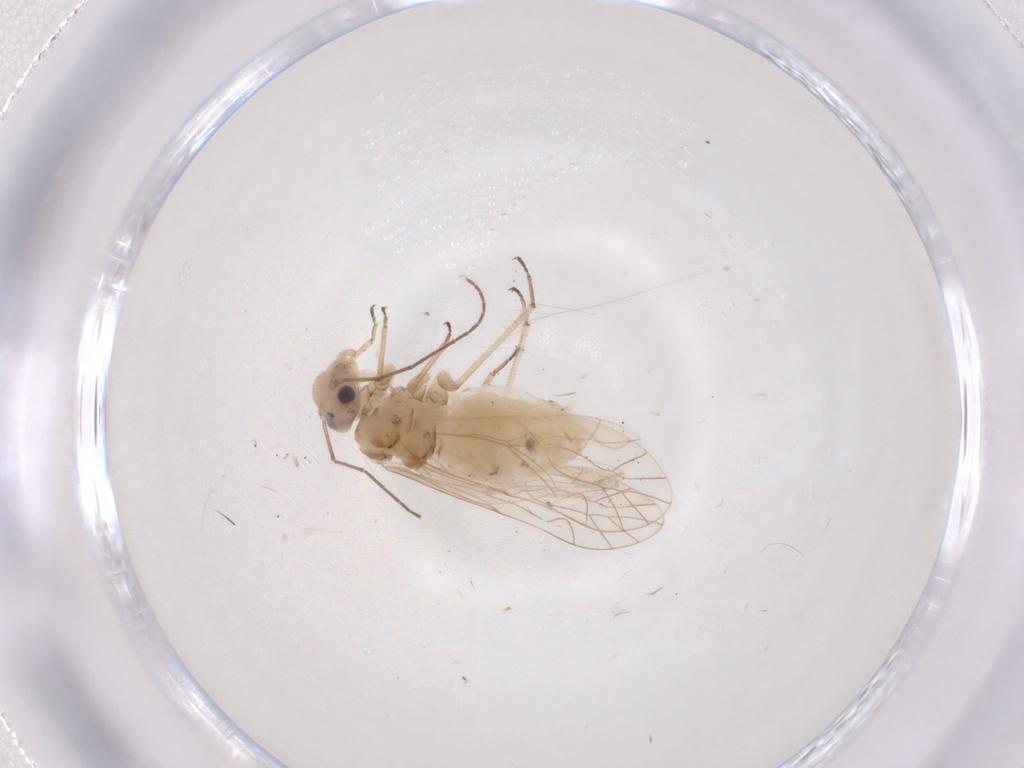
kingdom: Animalia
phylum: Arthropoda
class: Insecta
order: Psocodea
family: Elipsocidae
